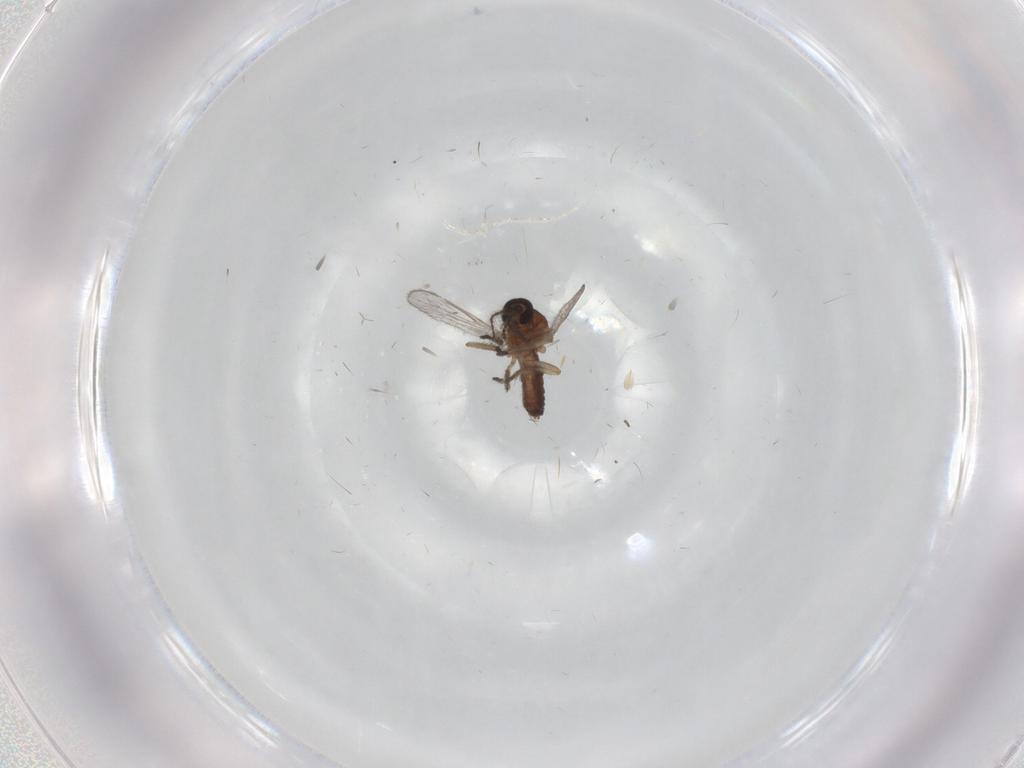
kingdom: Animalia
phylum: Arthropoda
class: Insecta
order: Diptera
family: Ceratopogonidae
